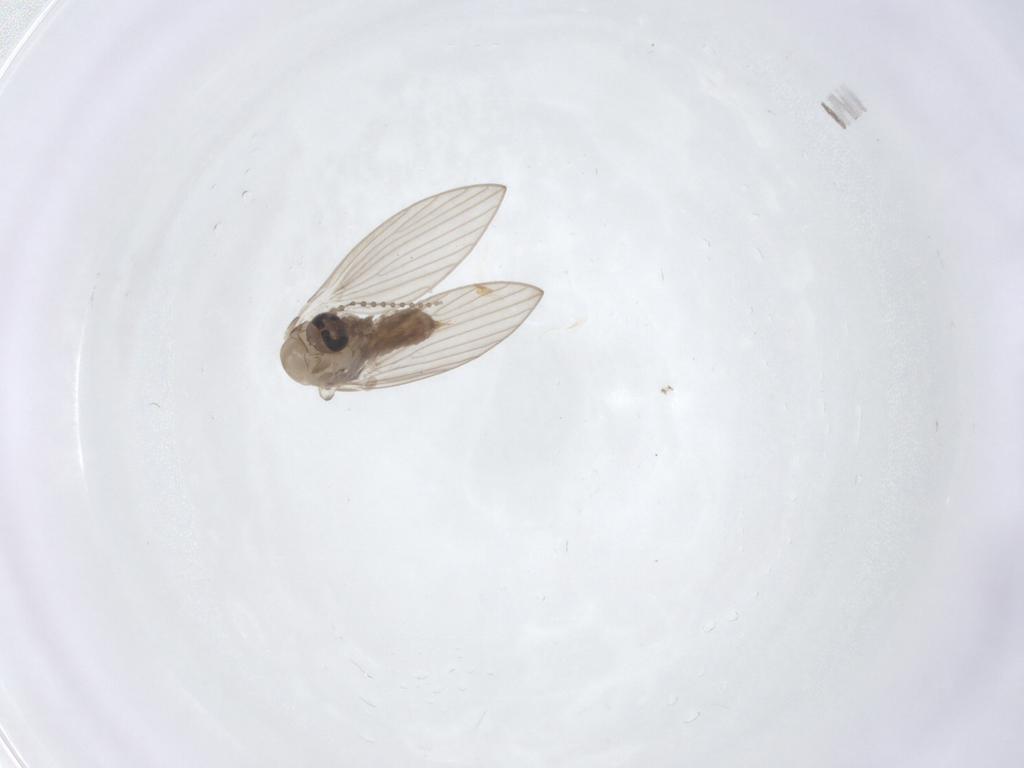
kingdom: Animalia
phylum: Arthropoda
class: Insecta
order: Diptera
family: Psychodidae
